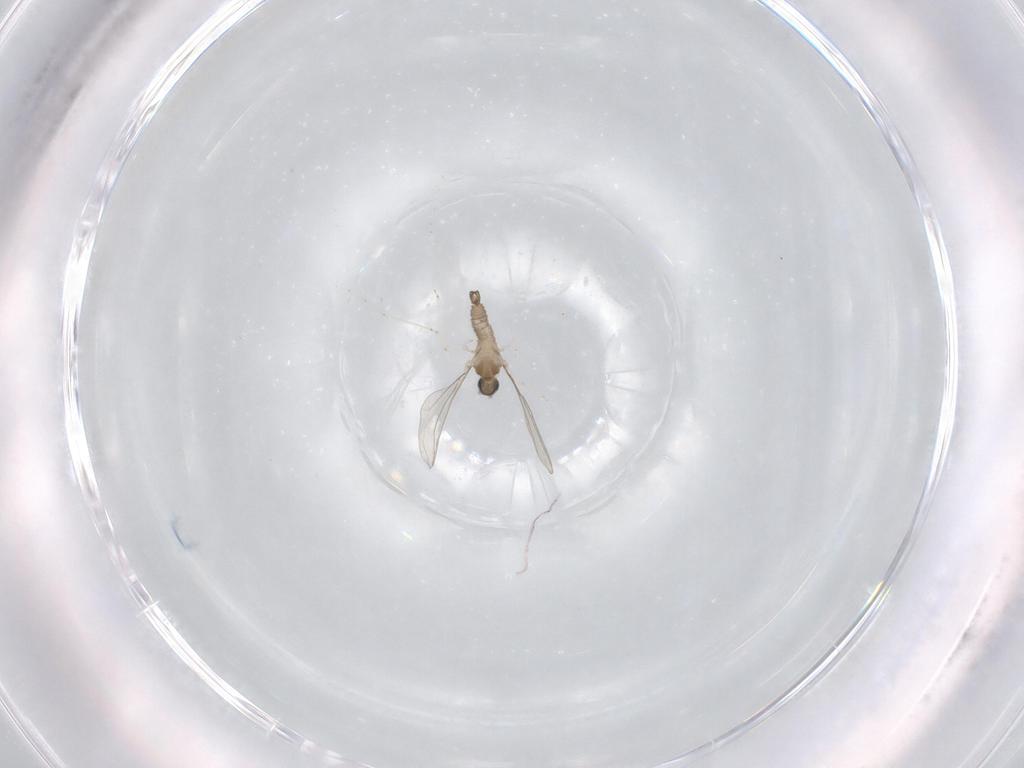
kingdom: Animalia
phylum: Arthropoda
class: Insecta
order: Diptera
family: Cecidomyiidae
